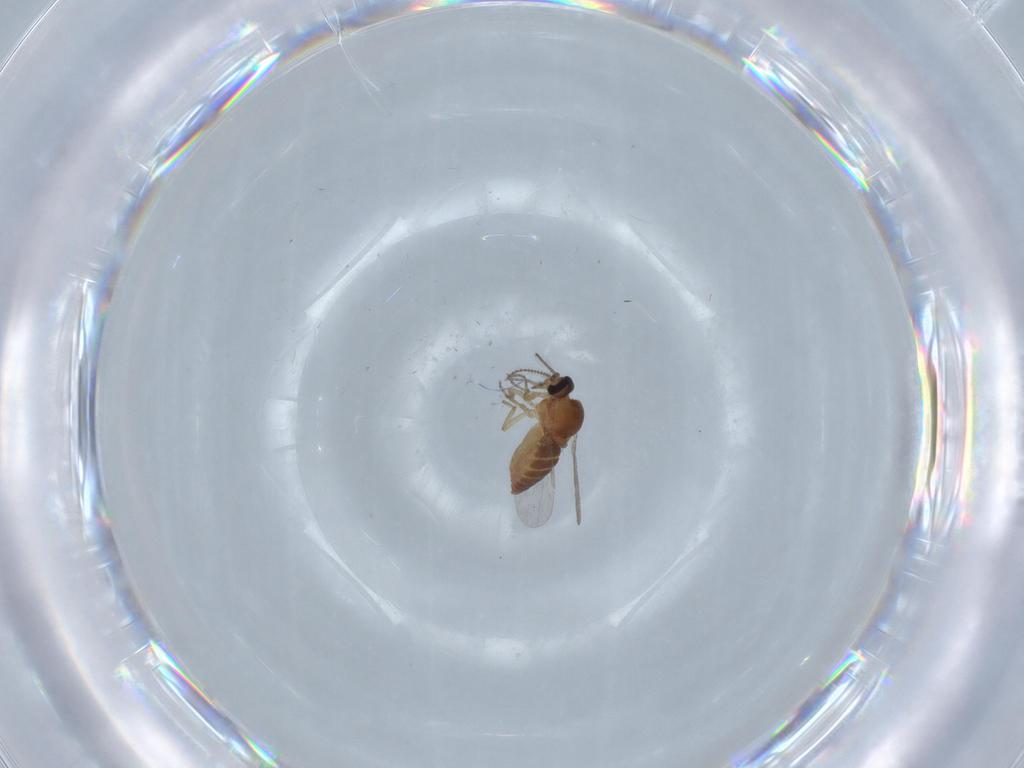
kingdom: Animalia
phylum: Arthropoda
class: Insecta
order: Diptera
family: Ceratopogonidae
